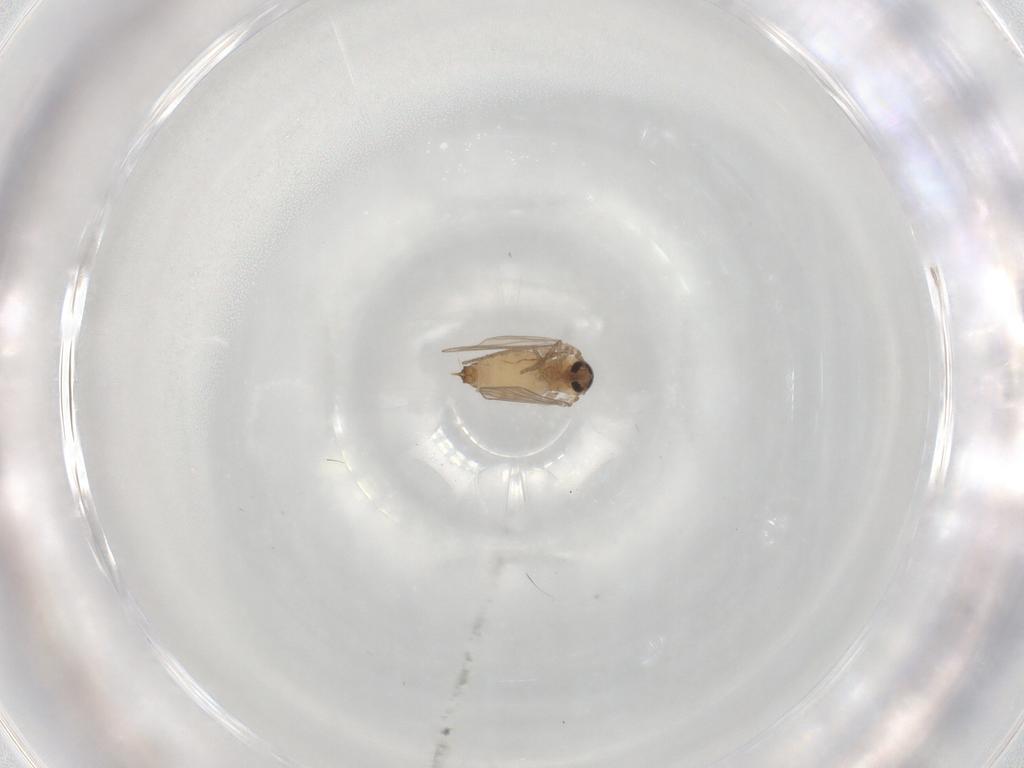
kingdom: Animalia
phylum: Arthropoda
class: Insecta
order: Diptera
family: Psychodidae
